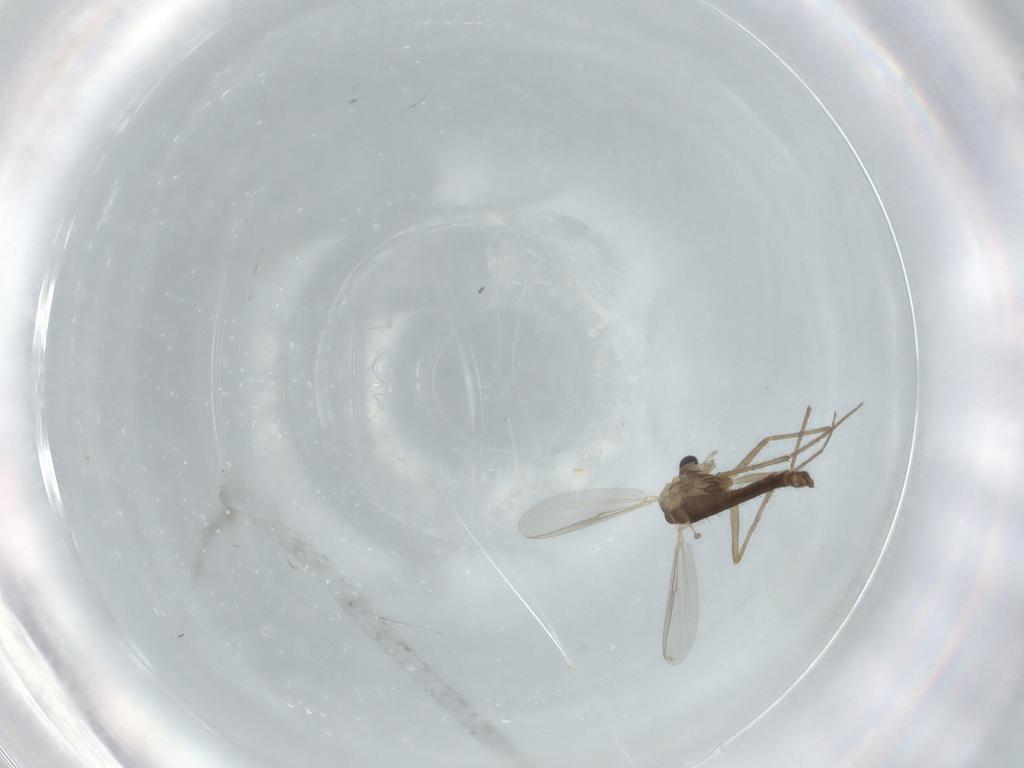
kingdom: Animalia
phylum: Arthropoda
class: Insecta
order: Diptera
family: Chironomidae
